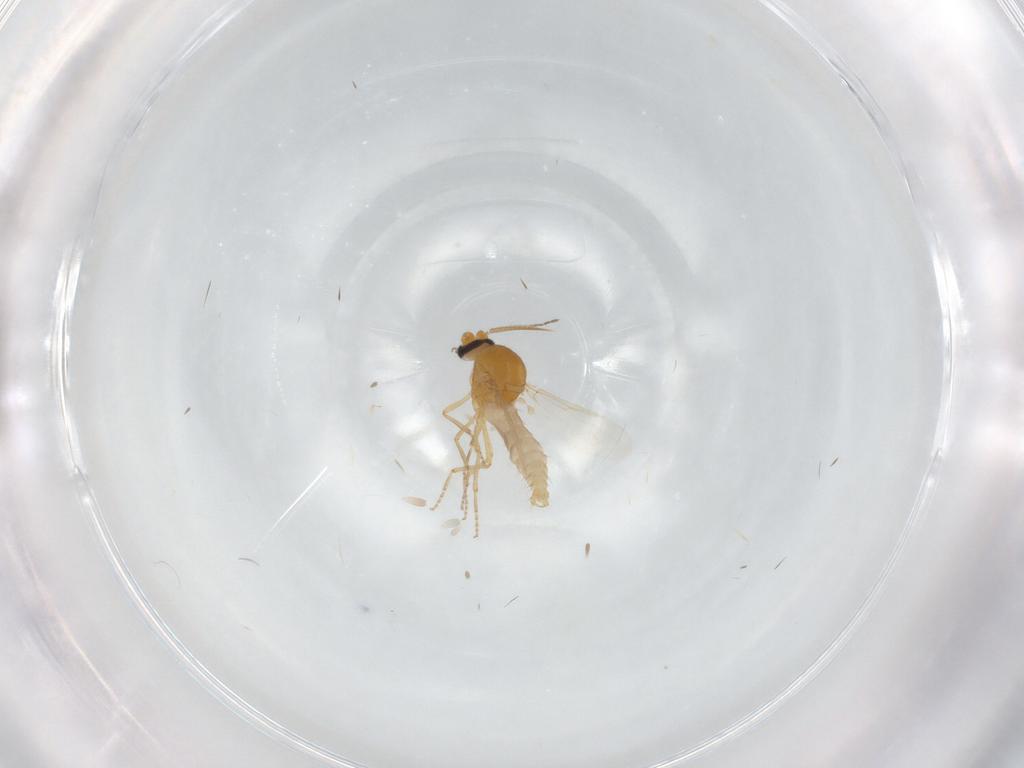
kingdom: Animalia
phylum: Arthropoda
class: Insecta
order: Diptera
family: Ceratopogonidae
